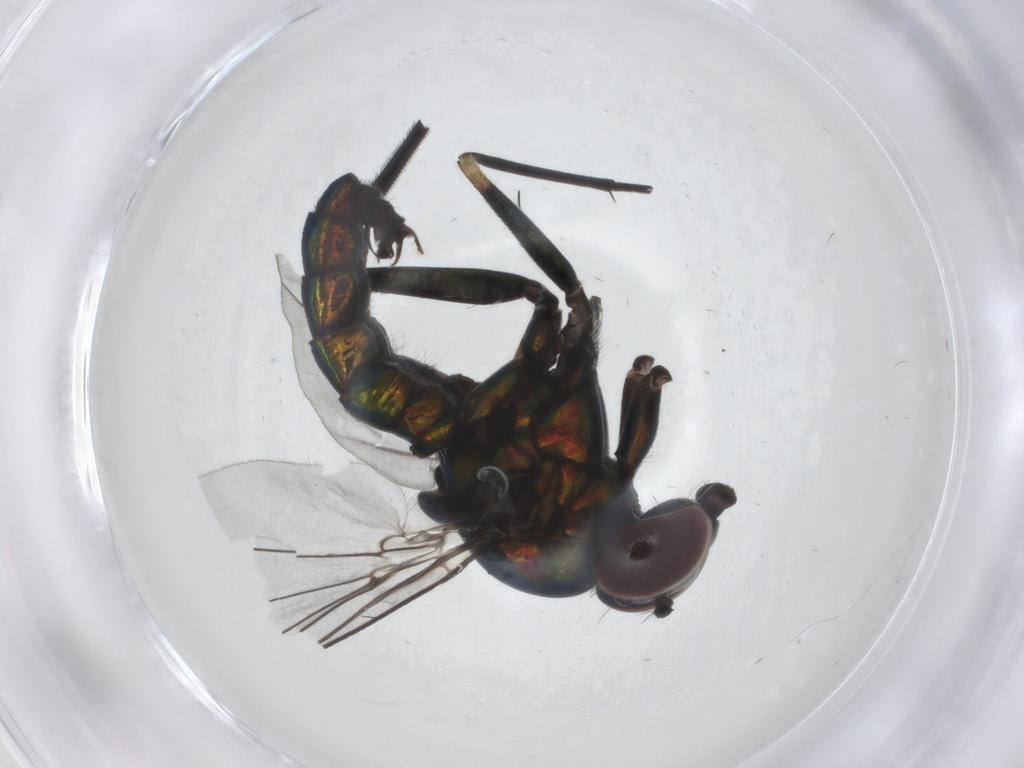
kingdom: Animalia
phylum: Arthropoda
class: Insecta
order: Diptera
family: Dolichopodidae
